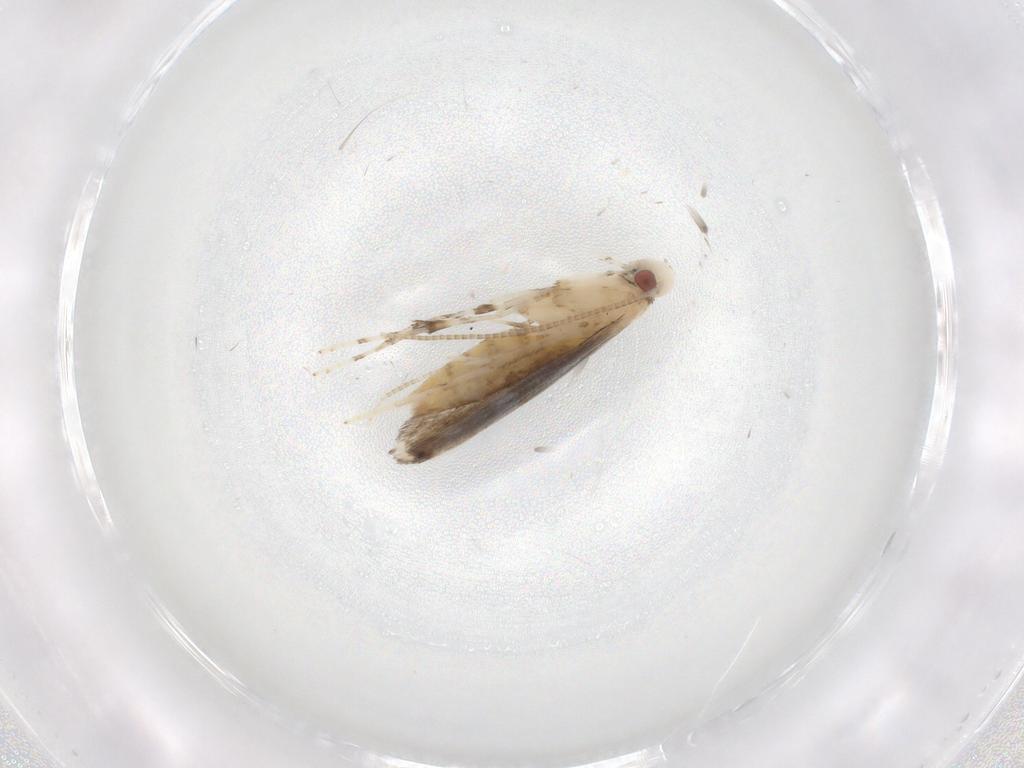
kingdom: Animalia
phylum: Arthropoda
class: Insecta
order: Lepidoptera
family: Gracillariidae
